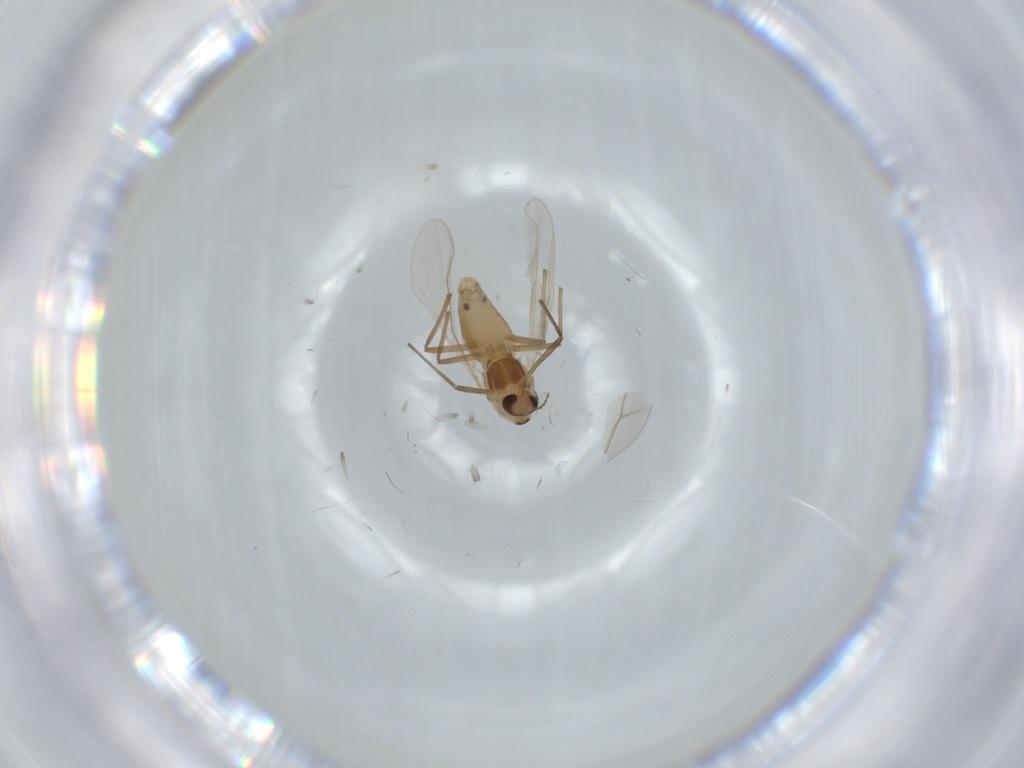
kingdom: Animalia
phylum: Arthropoda
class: Insecta
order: Diptera
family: Chironomidae
